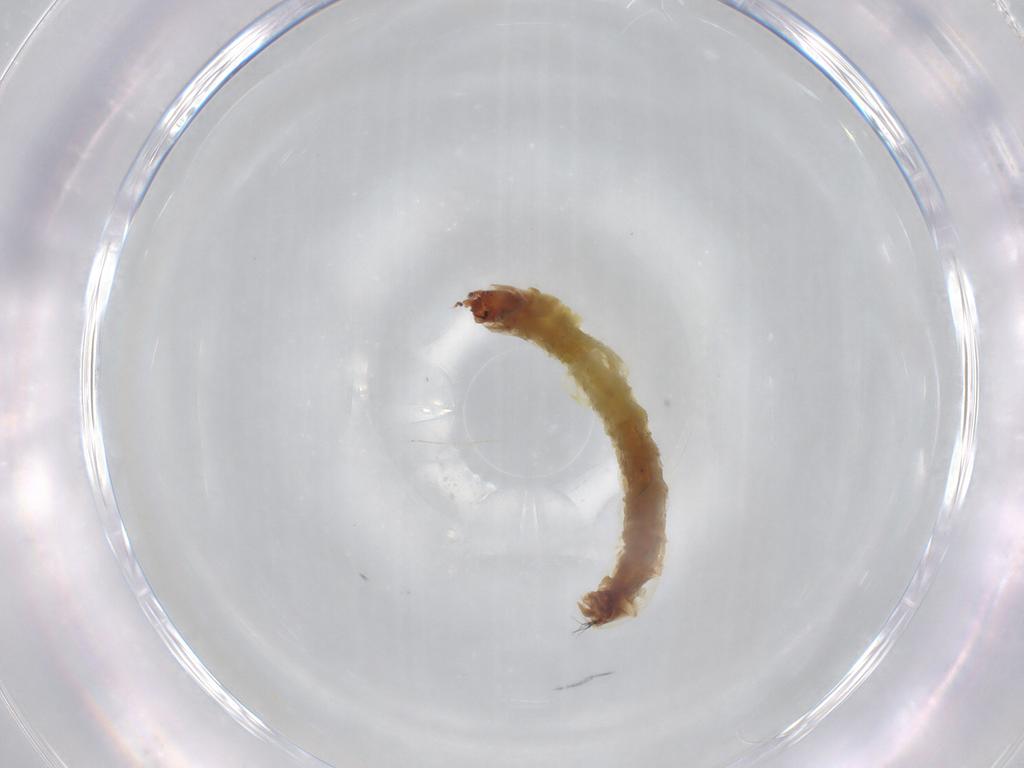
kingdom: Animalia
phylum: Arthropoda
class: Insecta
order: Diptera
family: Chironomidae
